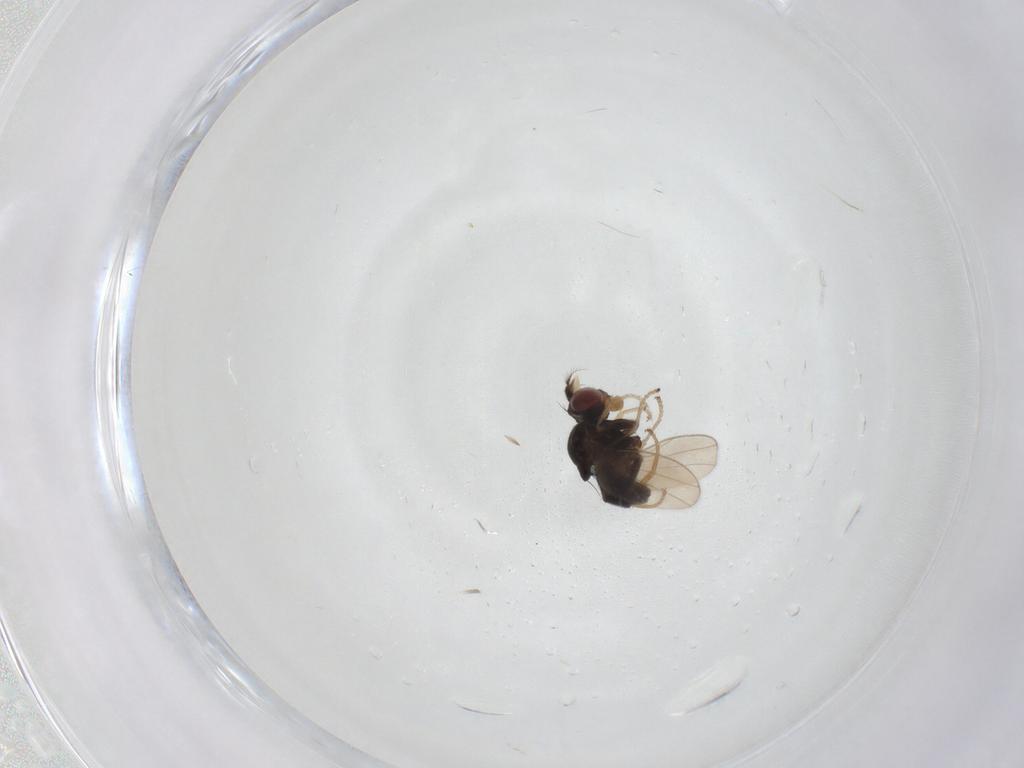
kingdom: Animalia
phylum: Arthropoda
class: Insecta
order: Diptera
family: Ephydridae
